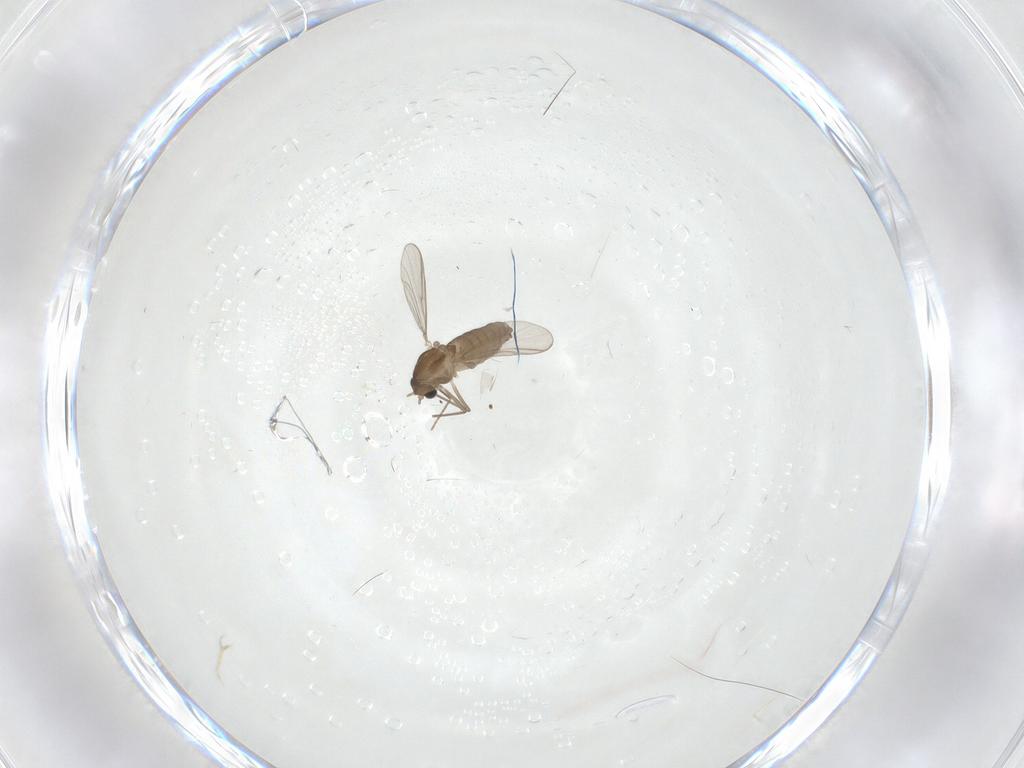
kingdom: Animalia
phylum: Arthropoda
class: Insecta
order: Diptera
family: Chironomidae
